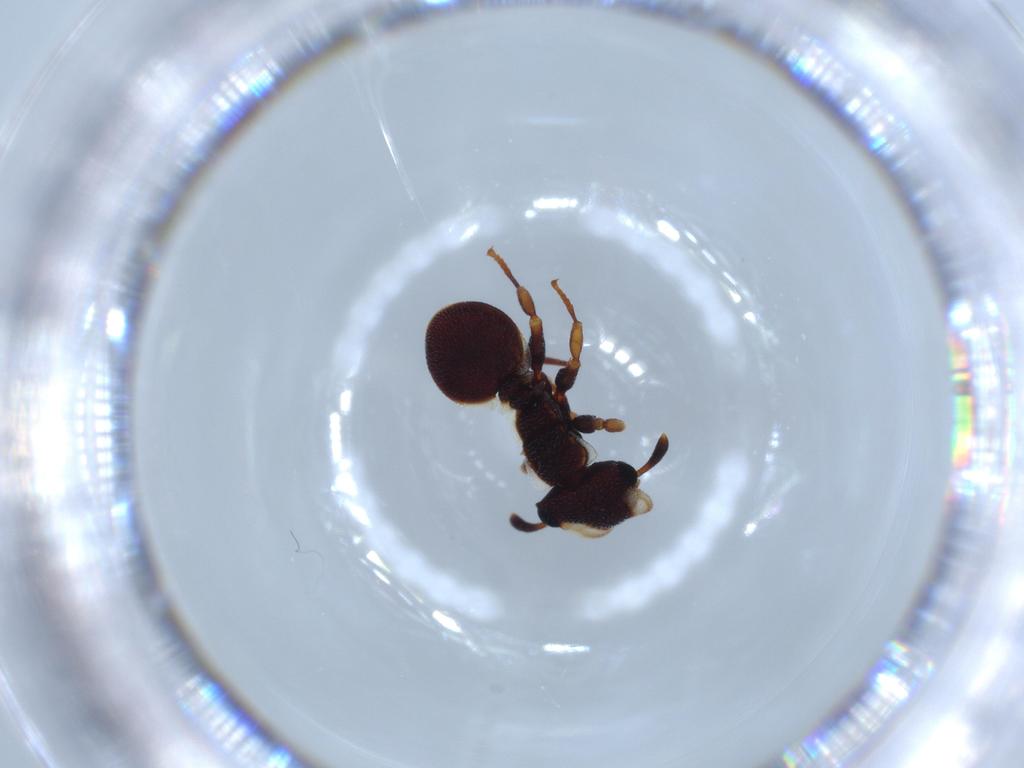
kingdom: Animalia
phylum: Arthropoda
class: Insecta
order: Hymenoptera
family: Formicidae
